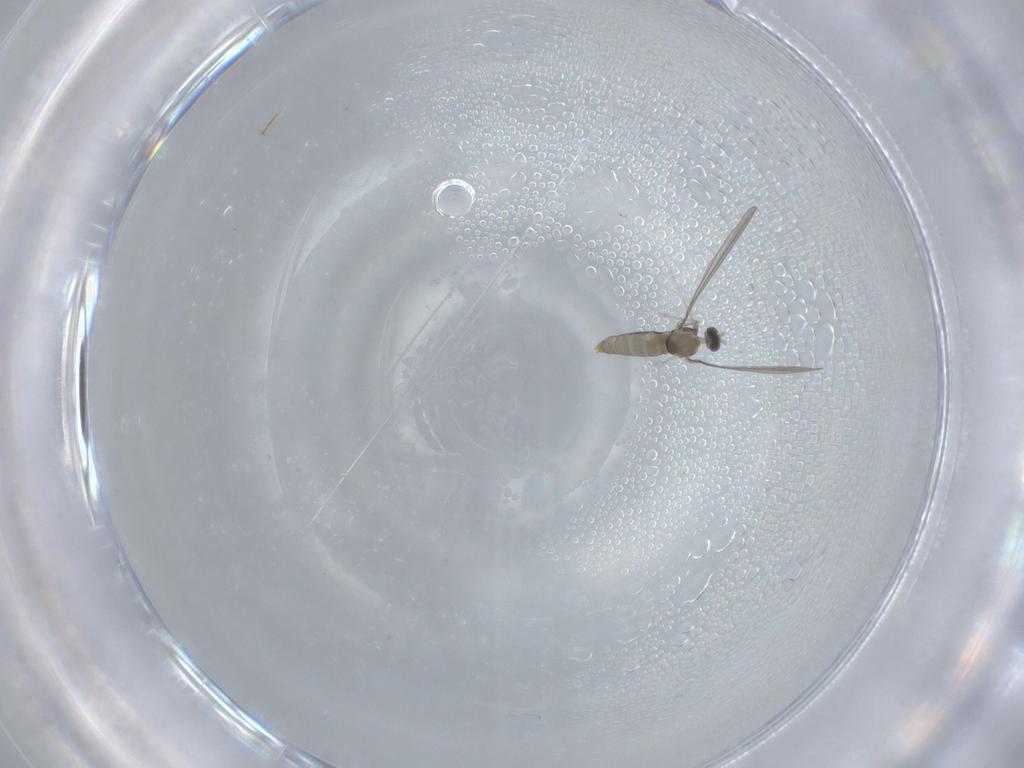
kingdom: Animalia
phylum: Arthropoda
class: Insecta
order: Diptera
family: Cecidomyiidae
